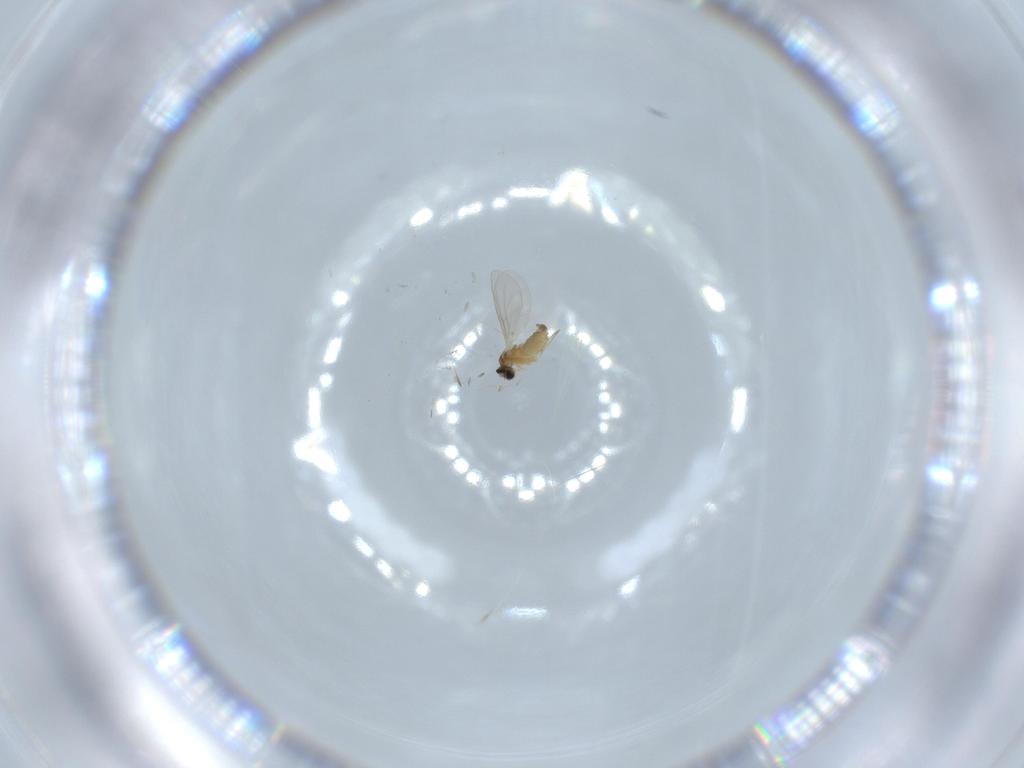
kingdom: Animalia
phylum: Arthropoda
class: Insecta
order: Diptera
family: Cecidomyiidae
